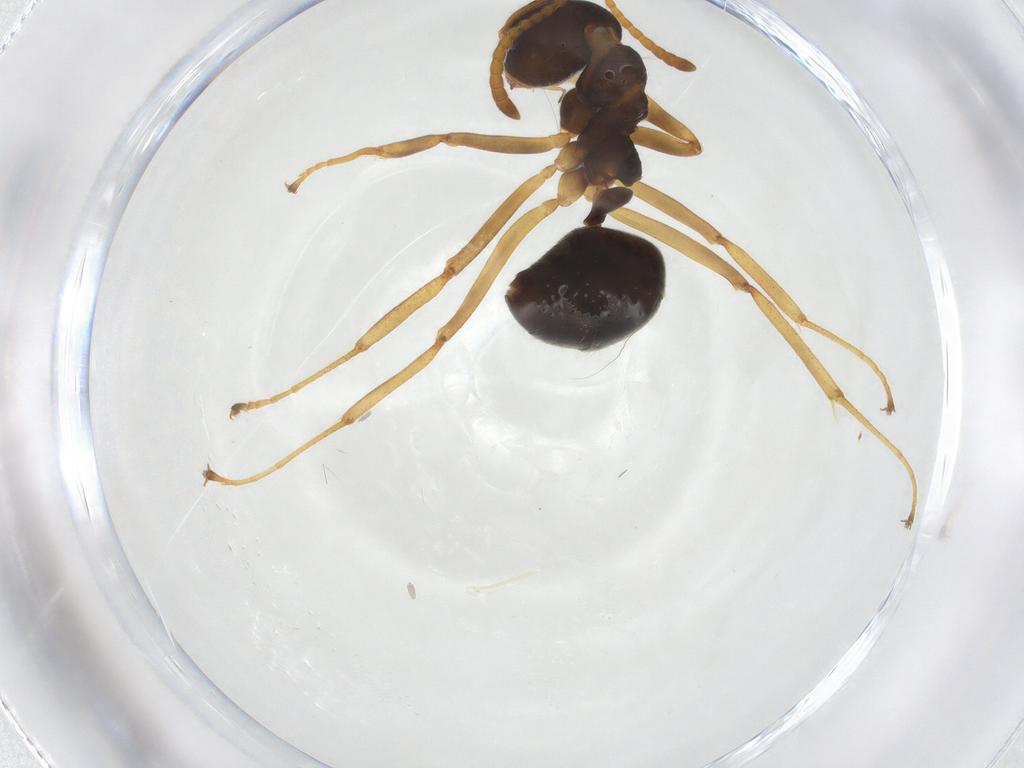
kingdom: Animalia
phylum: Arthropoda
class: Insecta
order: Hymenoptera
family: Formicidae
